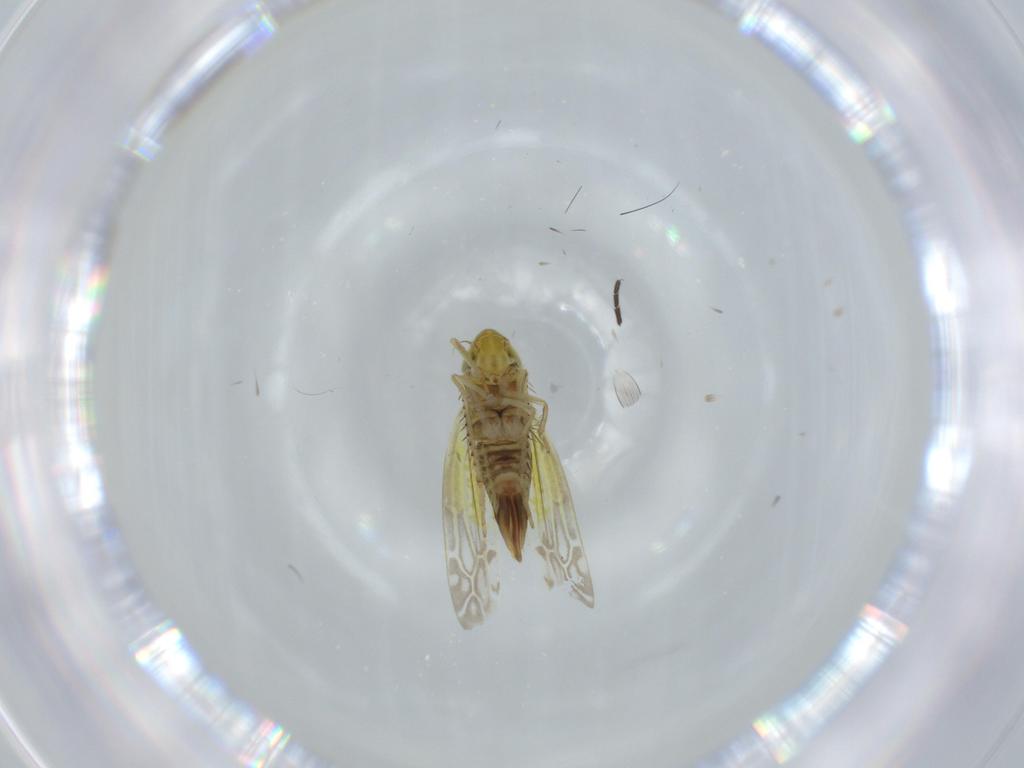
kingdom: Animalia
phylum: Arthropoda
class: Insecta
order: Hemiptera
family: Cicadellidae
